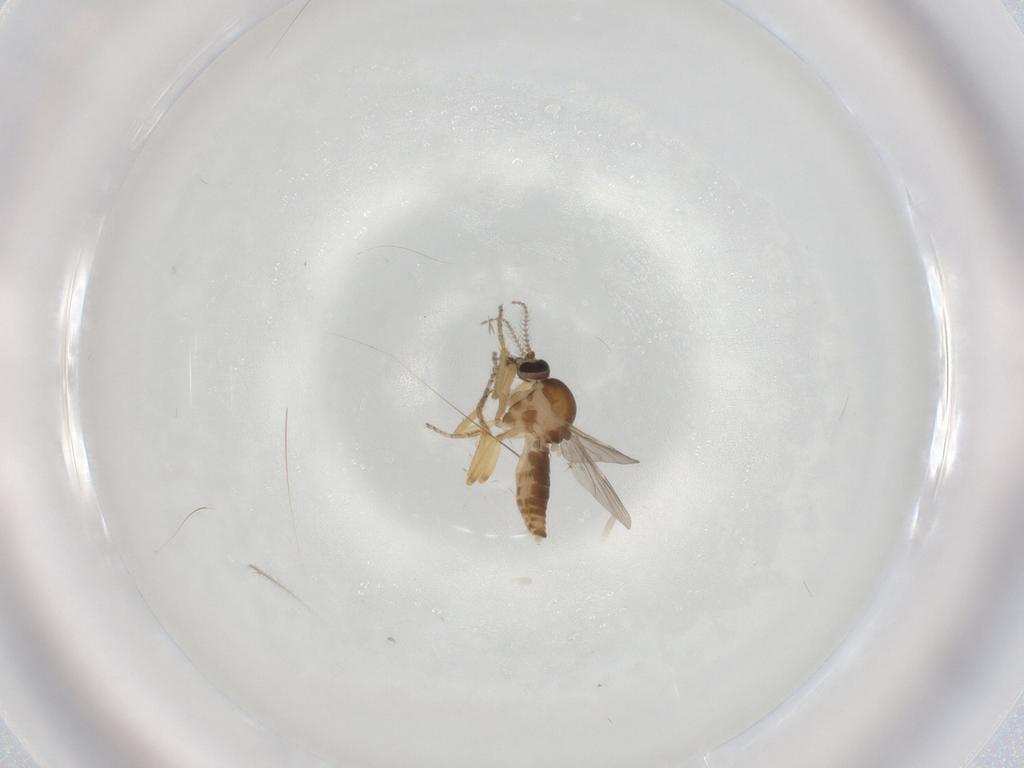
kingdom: Animalia
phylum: Arthropoda
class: Insecta
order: Diptera
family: Ceratopogonidae
